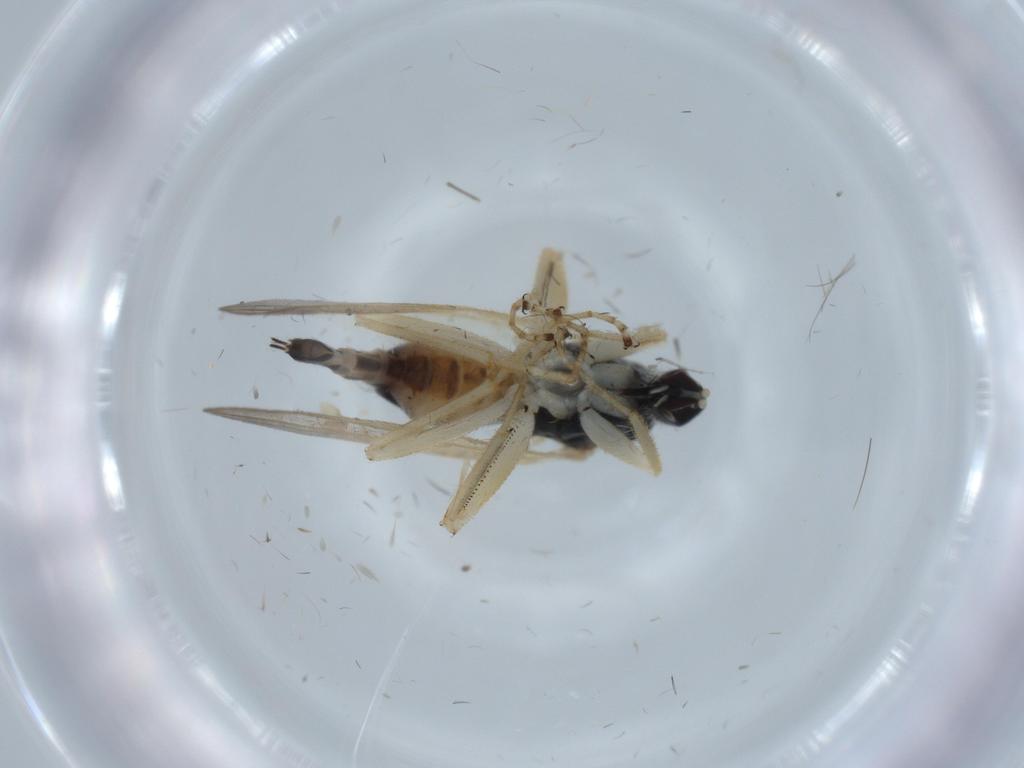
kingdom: Animalia
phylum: Arthropoda
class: Insecta
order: Diptera
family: Hybotidae
